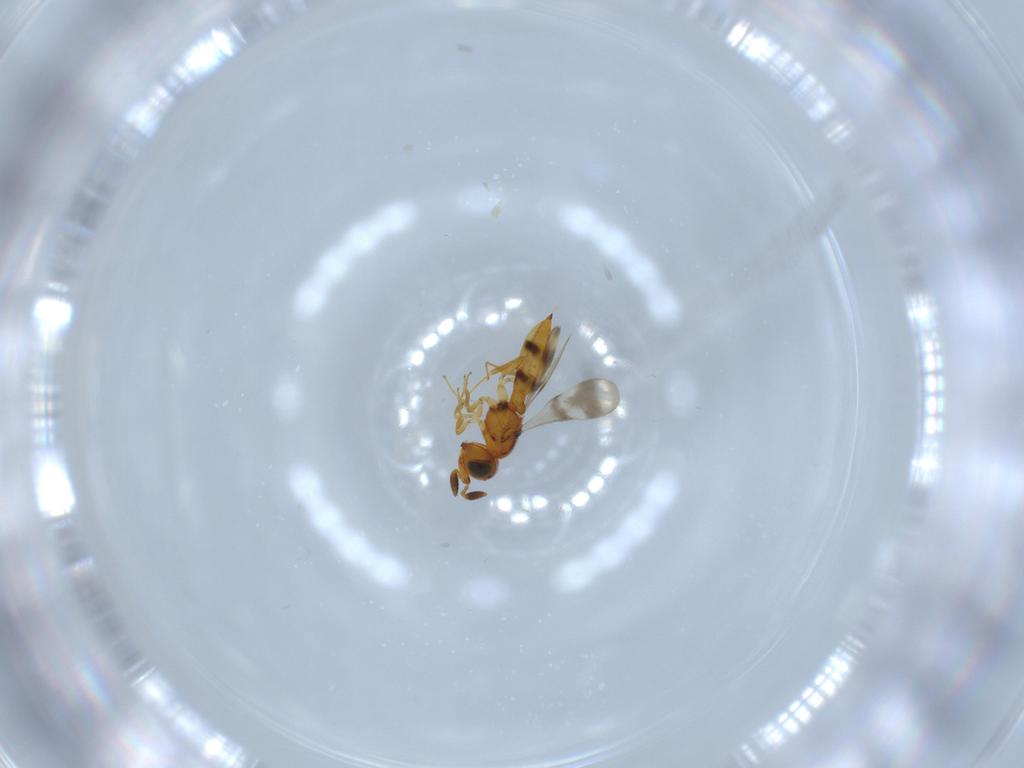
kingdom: Animalia
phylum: Arthropoda
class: Insecta
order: Hymenoptera
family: Scelionidae
